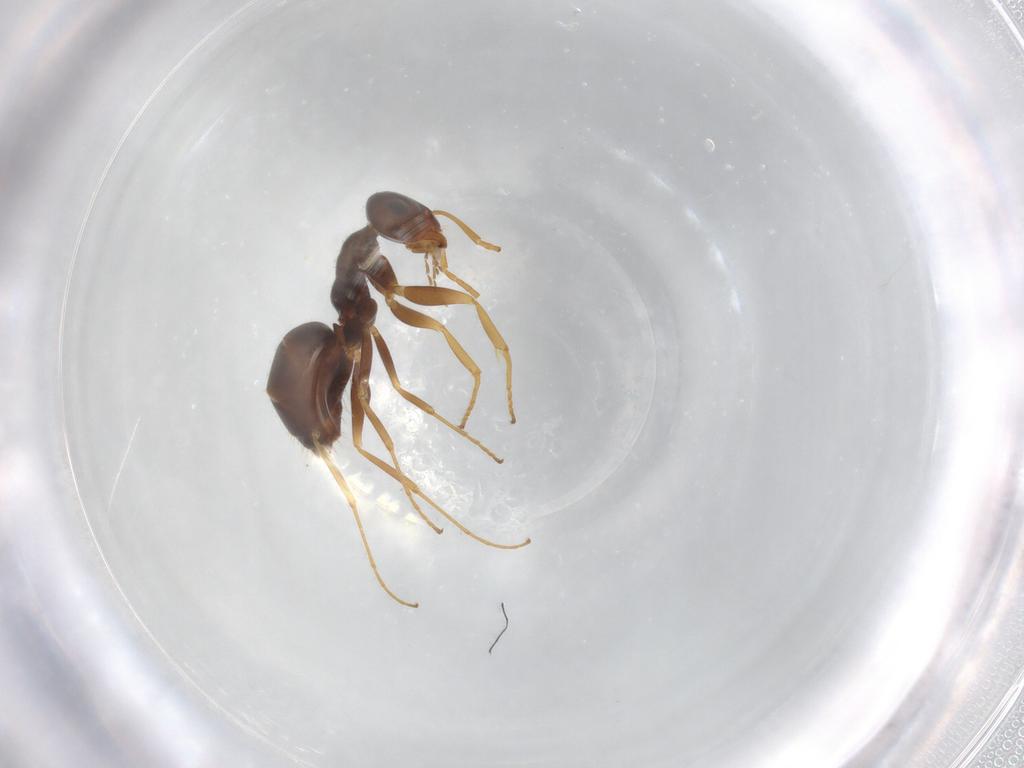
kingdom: Animalia
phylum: Arthropoda
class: Insecta
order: Hymenoptera
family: Formicidae
